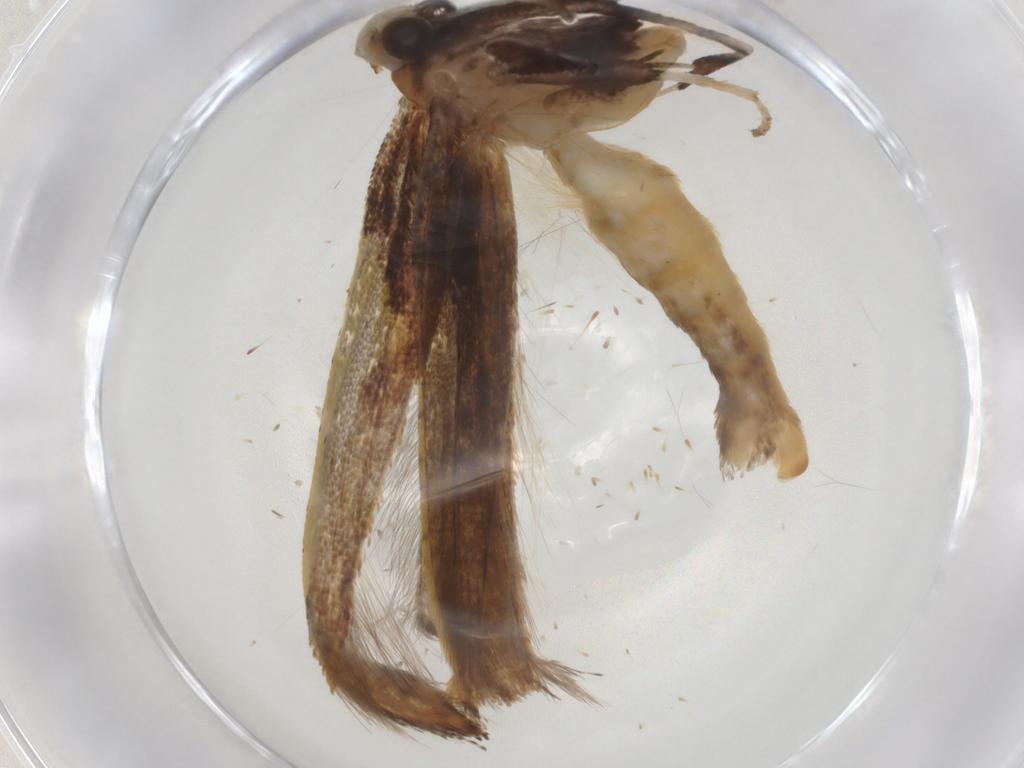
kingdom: Animalia
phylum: Arthropoda
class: Insecta
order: Lepidoptera
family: Gracillariidae
